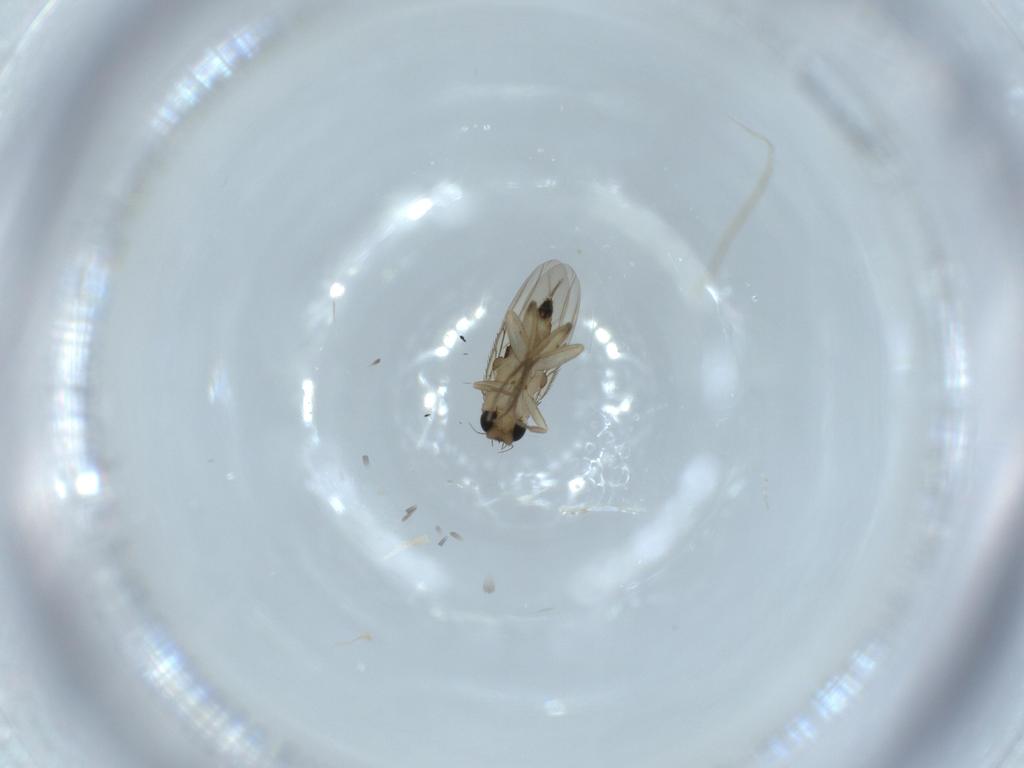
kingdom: Animalia
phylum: Arthropoda
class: Insecta
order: Diptera
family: Phoridae
